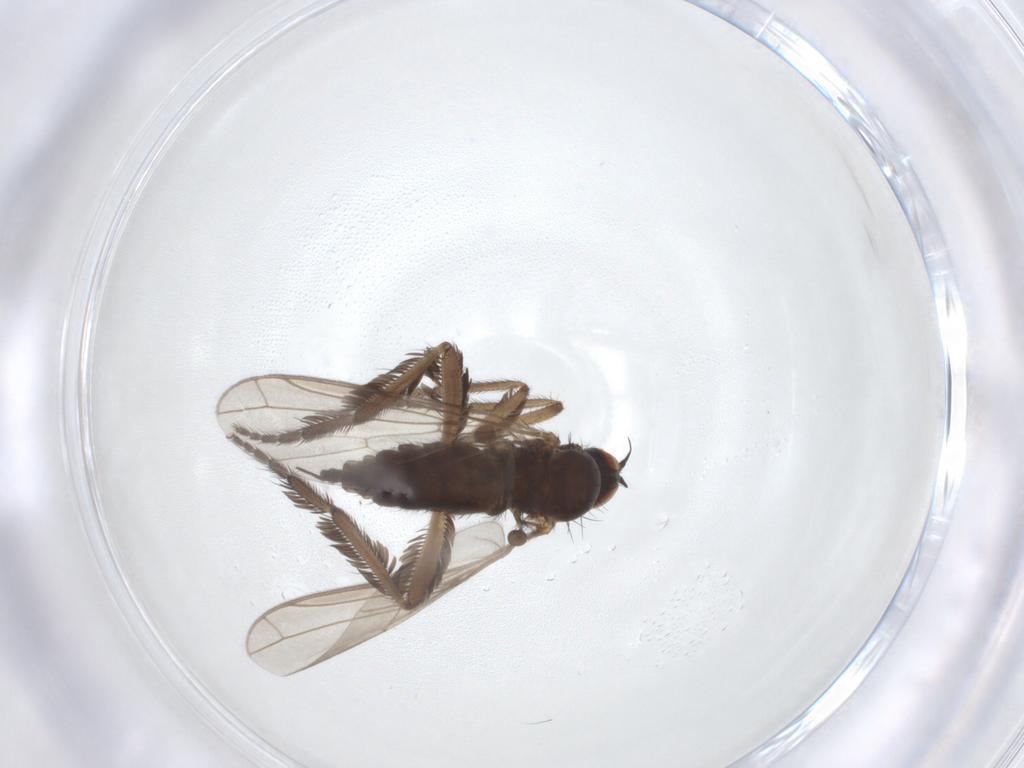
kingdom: Animalia
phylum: Arthropoda
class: Insecta
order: Diptera
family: Empididae
